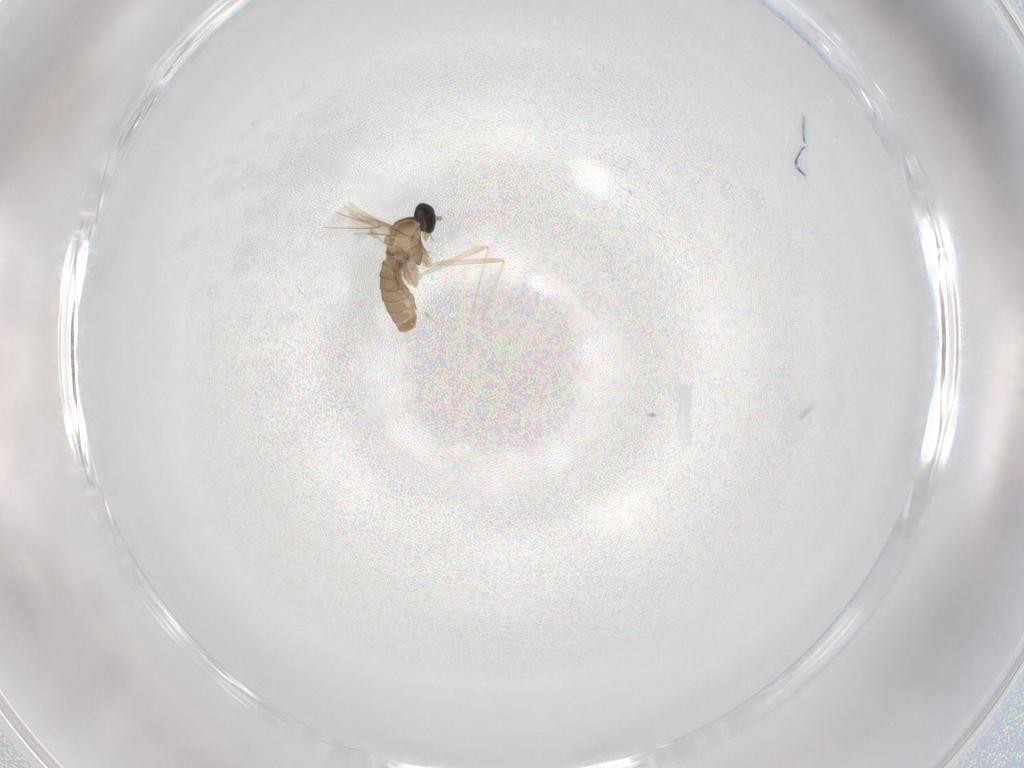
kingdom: Animalia
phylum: Arthropoda
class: Insecta
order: Diptera
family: Cecidomyiidae
